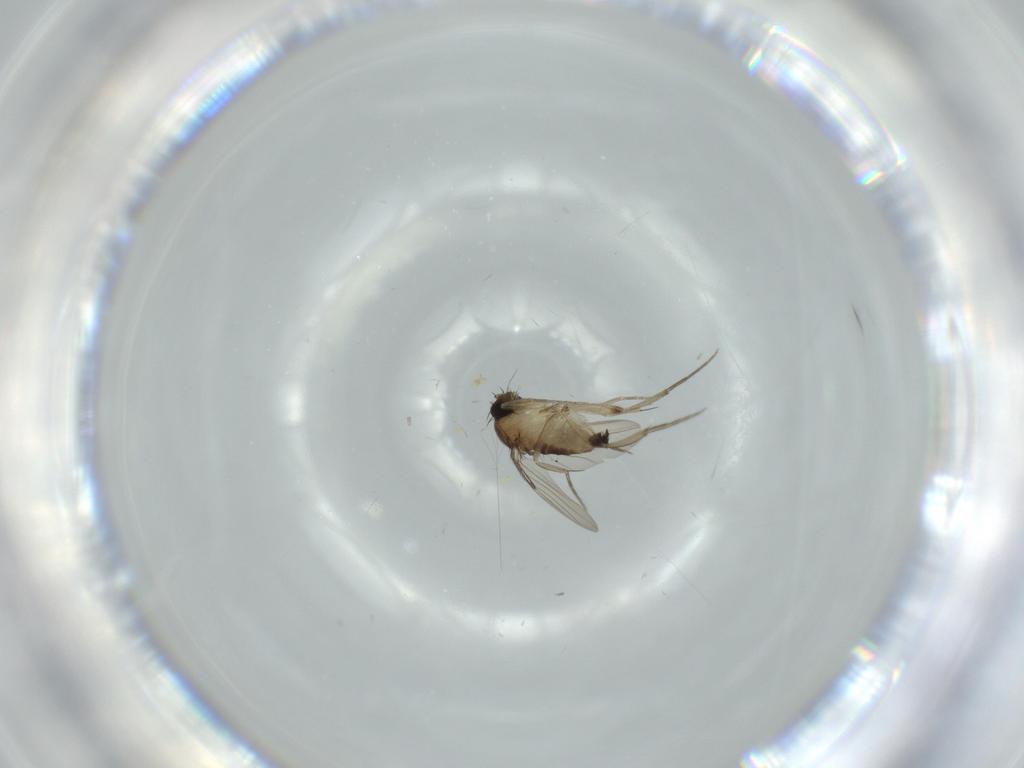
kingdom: Animalia
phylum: Arthropoda
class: Insecta
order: Diptera
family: Phoridae
